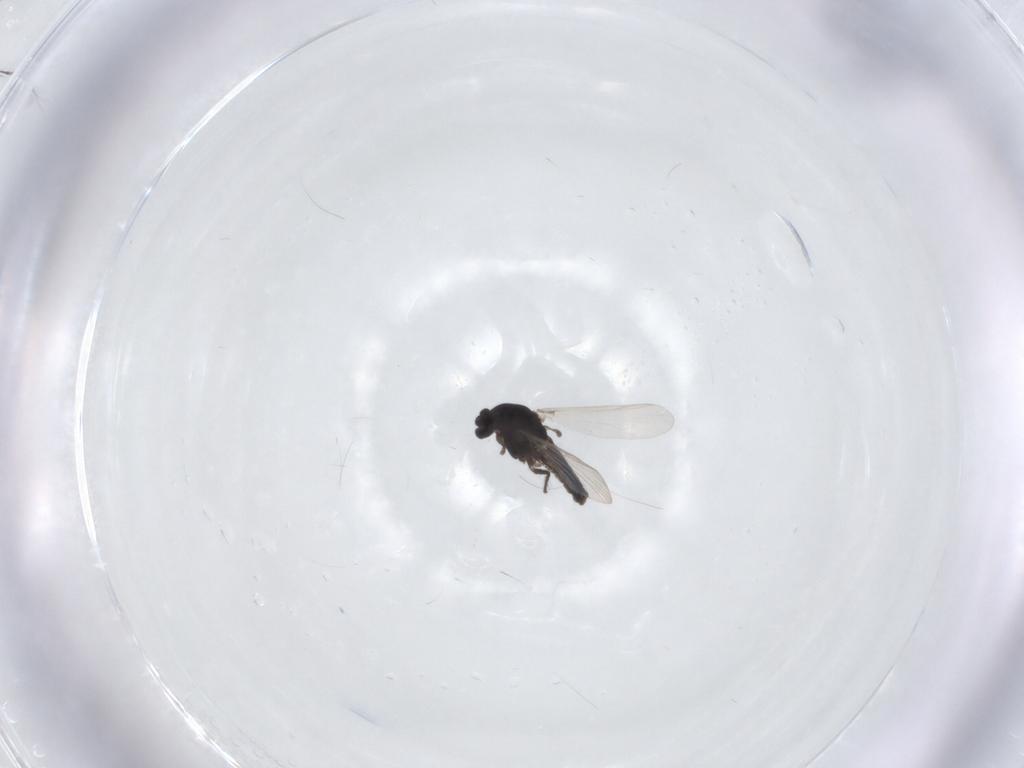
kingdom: Animalia
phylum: Arthropoda
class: Insecta
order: Diptera
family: Chironomidae
